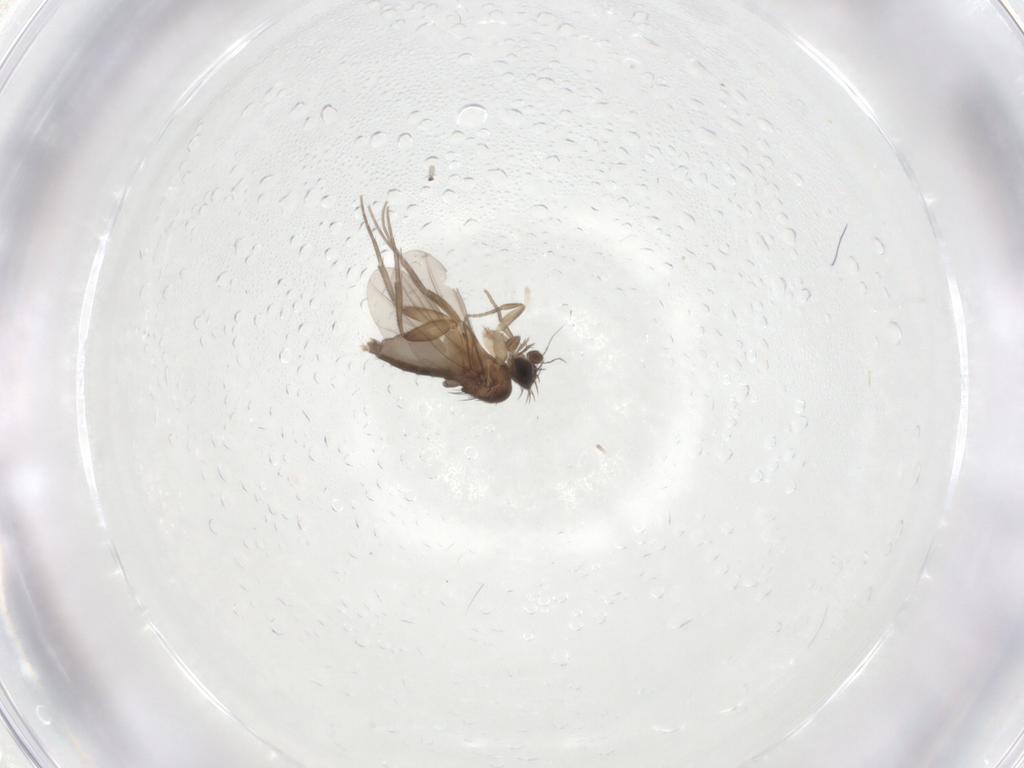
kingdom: Animalia
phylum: Arthropoda
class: Insecta
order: Diptera
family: Phoridae
